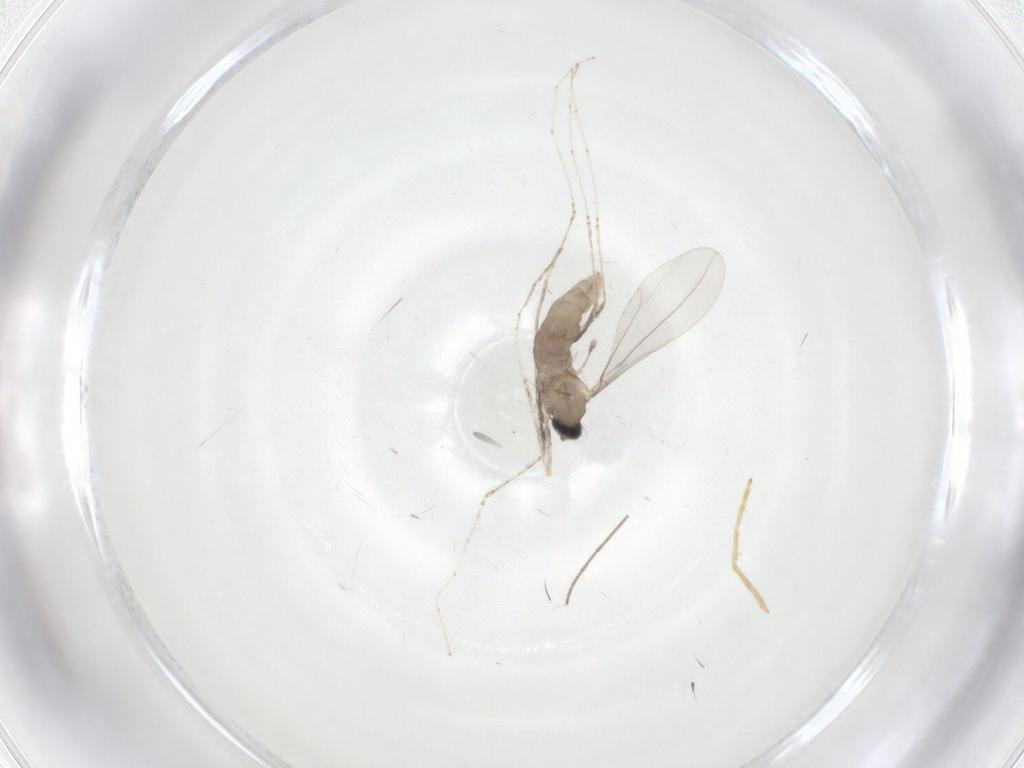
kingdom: Animalia
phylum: Arthropoda
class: Insecta
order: Diptera
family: Cecidomyiidae
